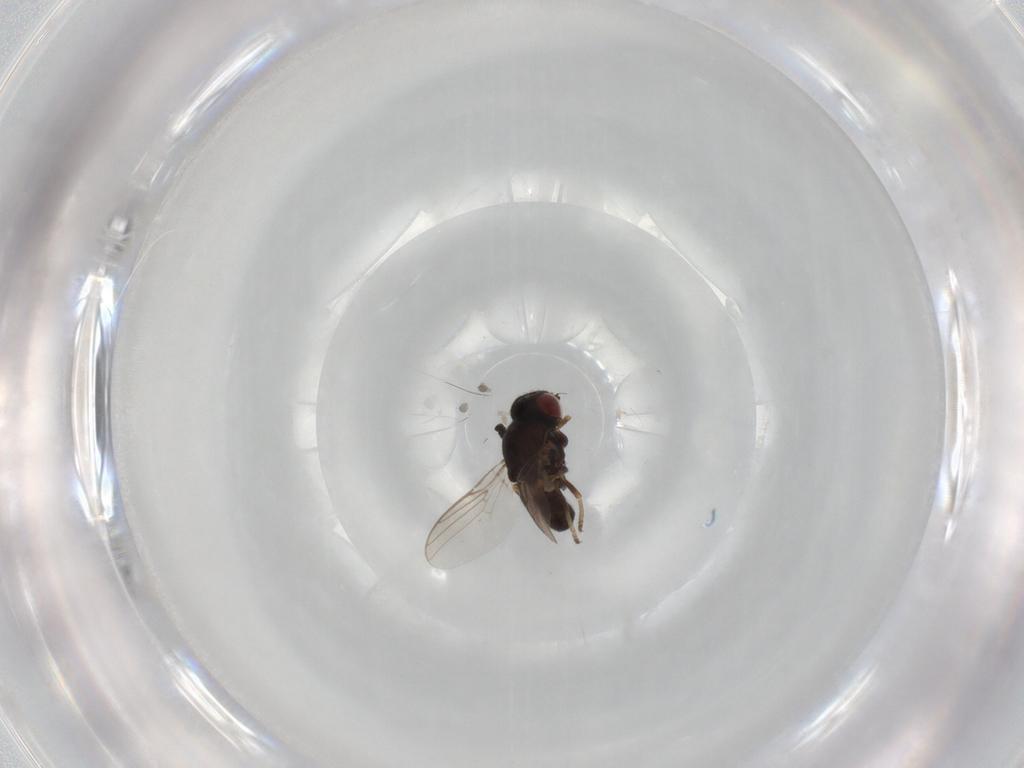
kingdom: Animalia
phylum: Arthropoda
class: Insecta
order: Diptera
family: Chloropidae
